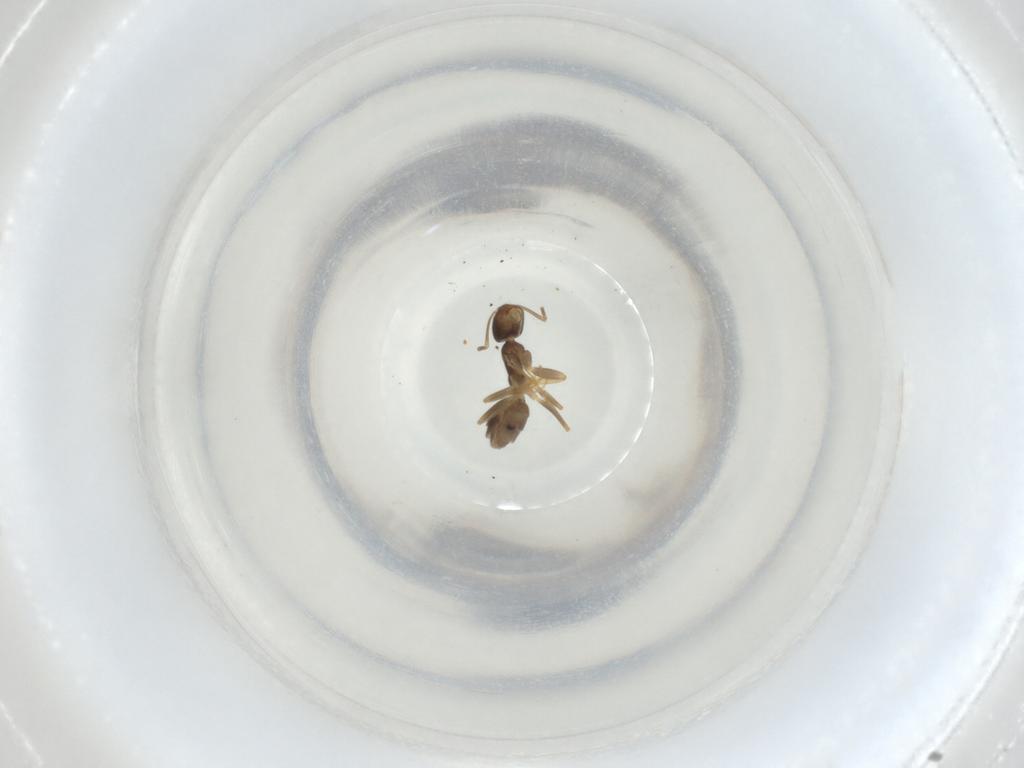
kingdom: Animalia
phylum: Arthropoda
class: Insecta
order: Hymenoptera
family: Formicidae
